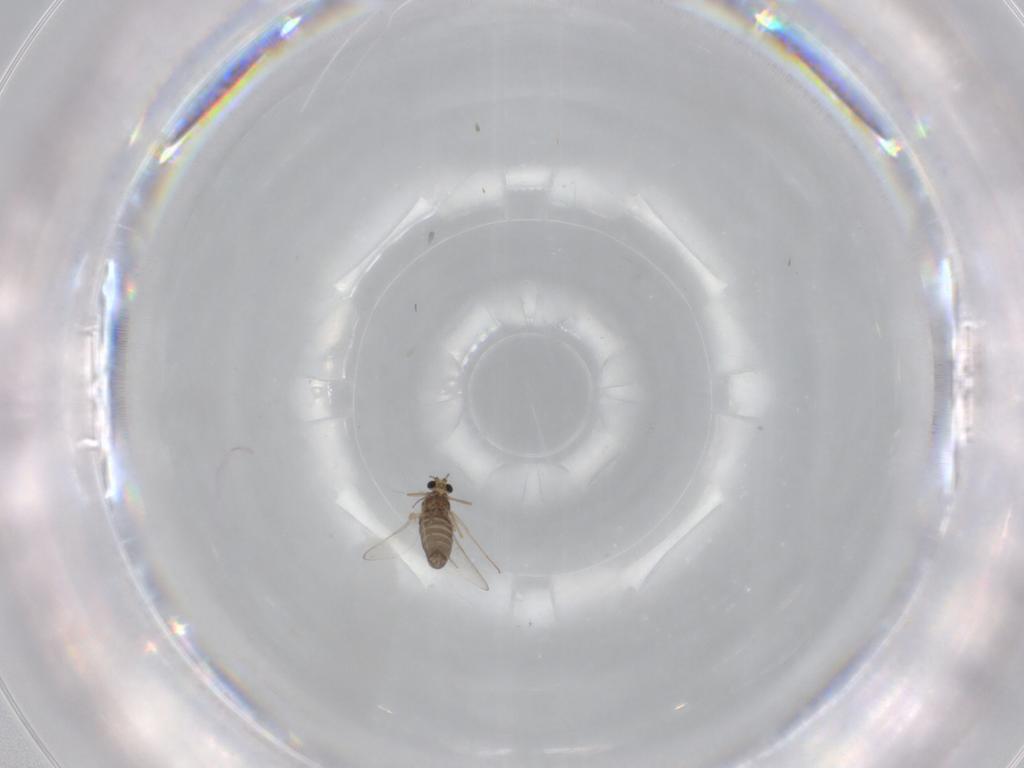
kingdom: Animalia
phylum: Arthropoda
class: Insecta
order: Diptera
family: Chironomidae
